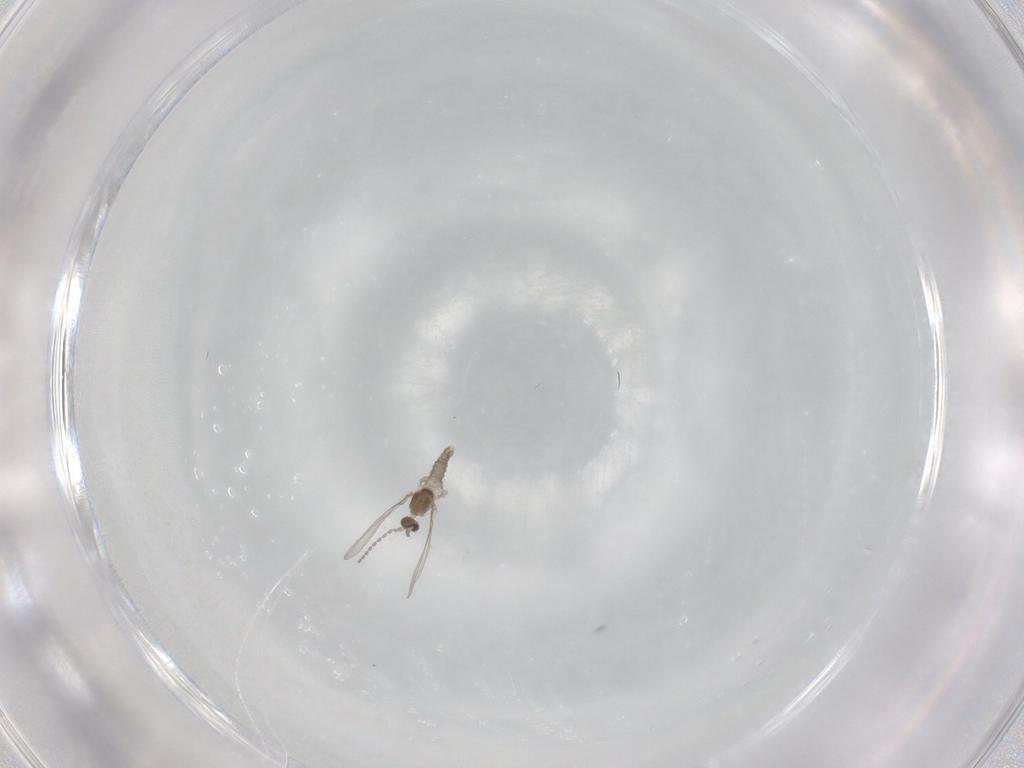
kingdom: Animalia
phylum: Arthropoda
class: Insecta
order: Diptera
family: Cecidomyiidae
